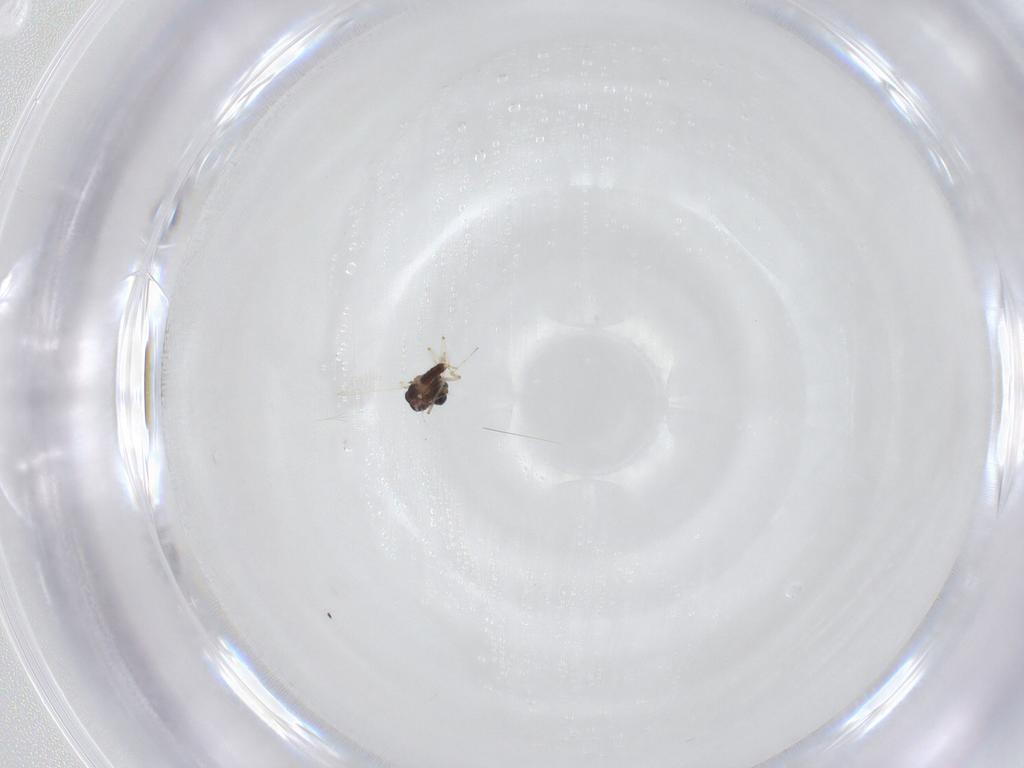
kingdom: Animalia
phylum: Arthropoda
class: Insecta
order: Diptera
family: Chironomidae
